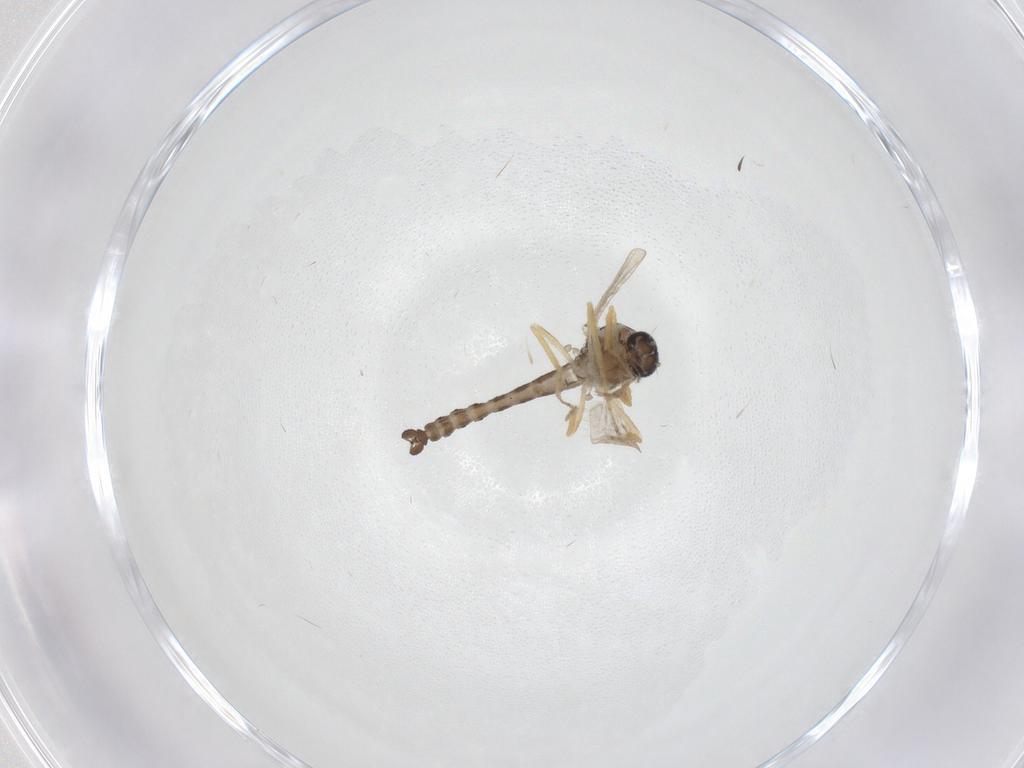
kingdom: Animalia
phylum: Arthropoda
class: Insecta
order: Diptera
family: Ceratopogonidae
